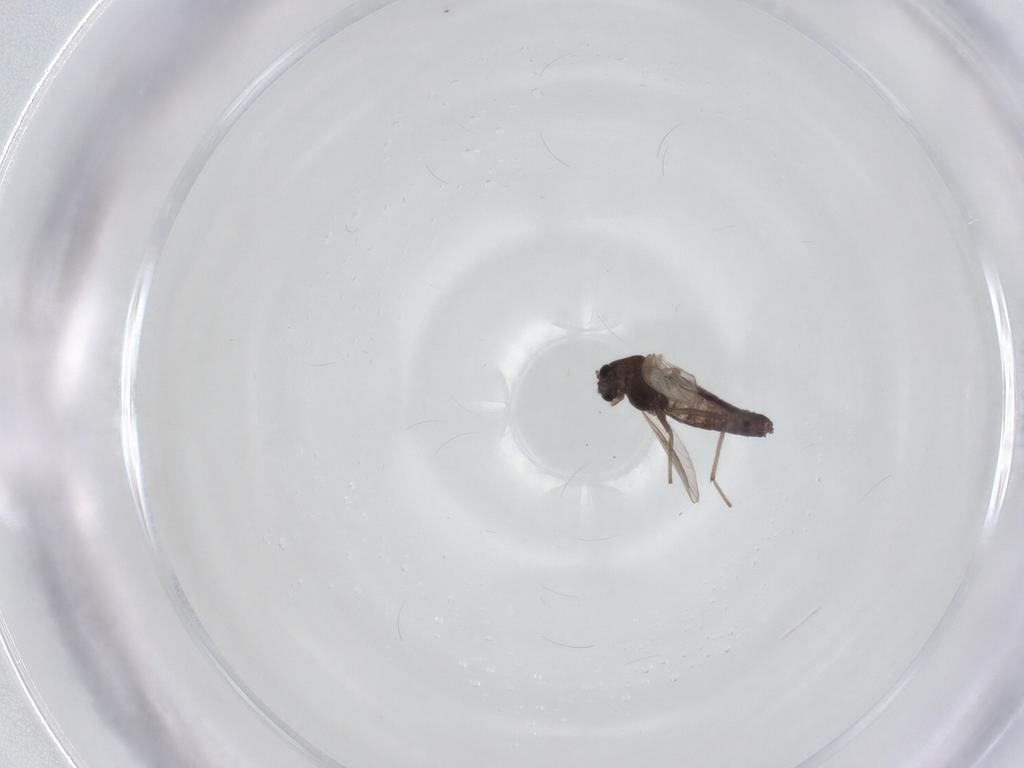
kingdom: Animalia
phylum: Arthropoda
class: Insecta
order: Diptera
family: Chironomidae
